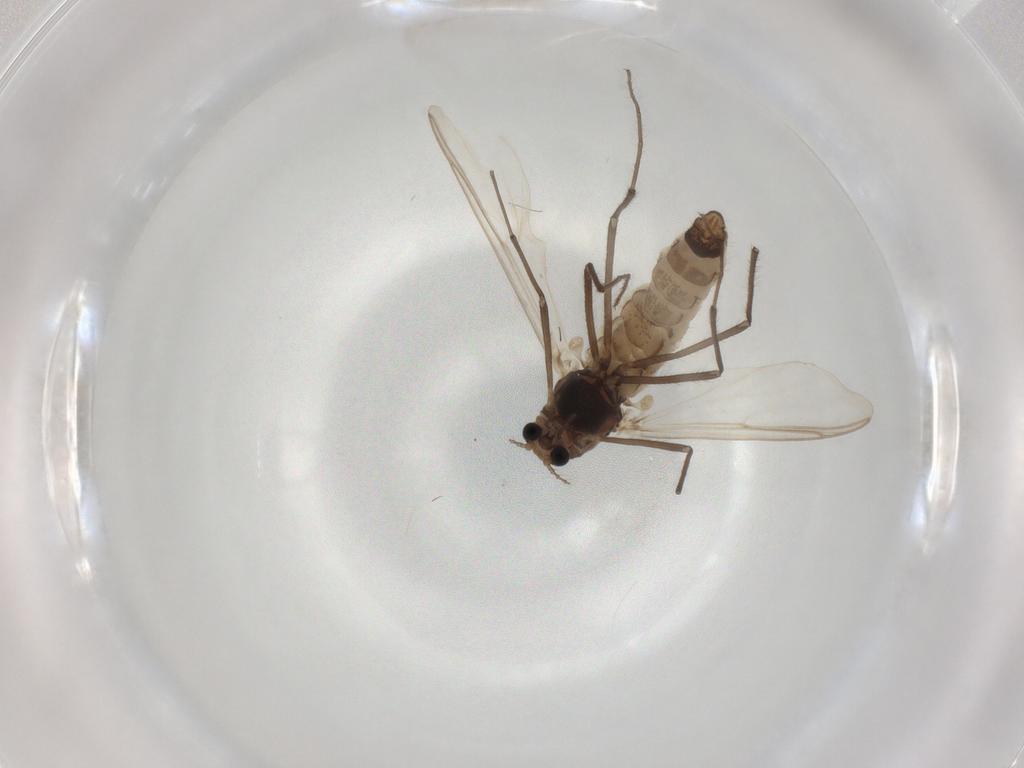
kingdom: Animalia
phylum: Arthropoda
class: Insecta
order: Diptera
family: Chironomidae
